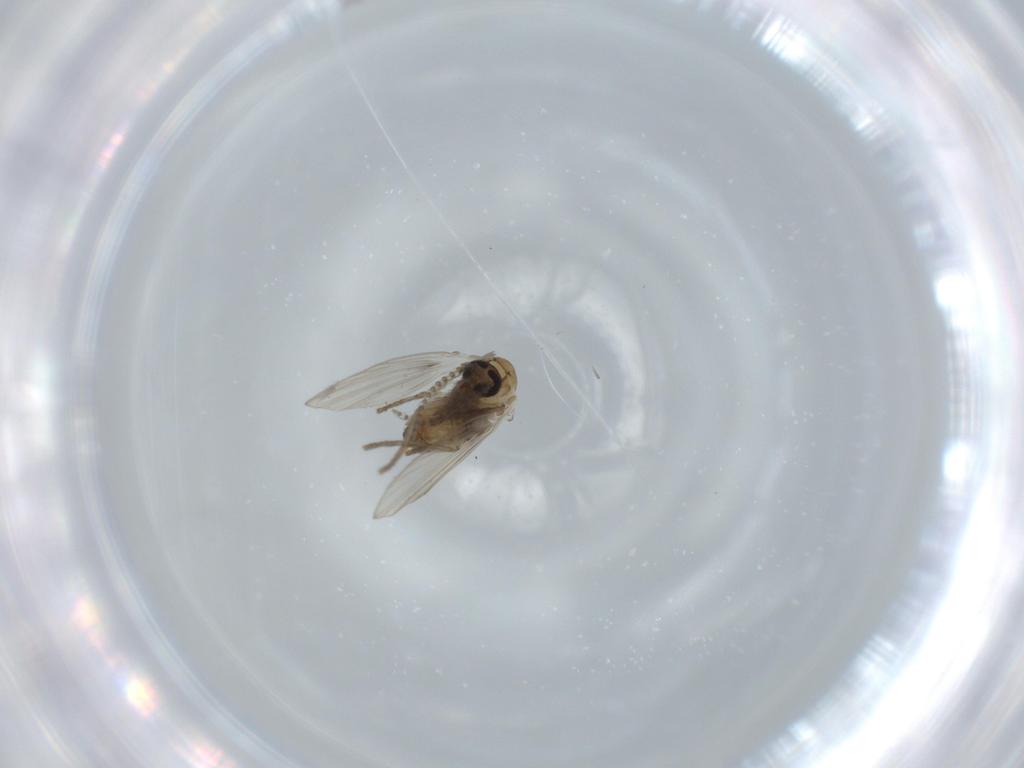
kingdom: Animalia
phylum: Arthropoda
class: Insecta
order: Diptera
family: Psychodidae
